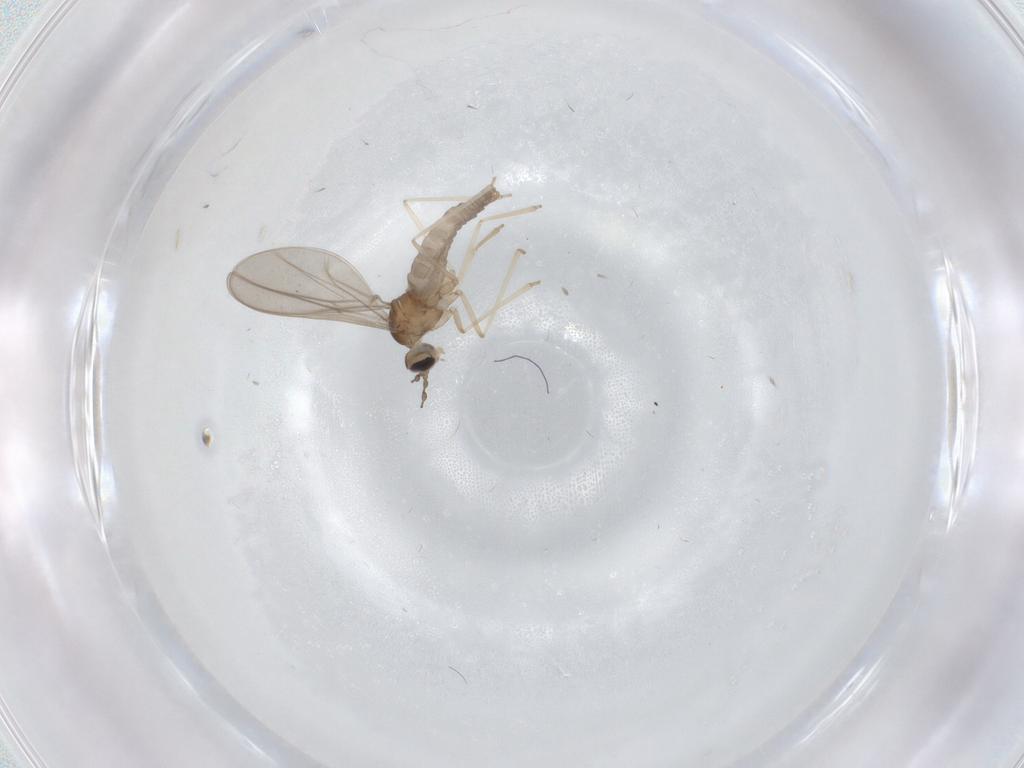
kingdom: Animalia
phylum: Arthropoda
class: Insecta
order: Diptera
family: Cecidomyiidae
